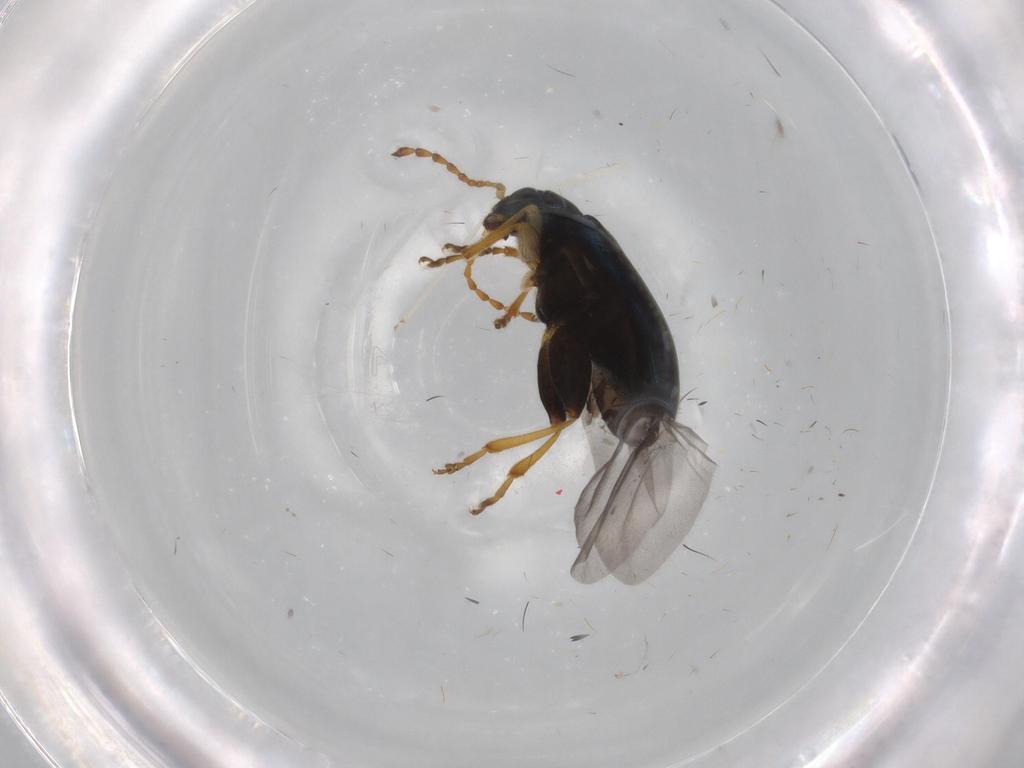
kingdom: Animalia
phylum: Arthropoda
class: Insecta
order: Coleoptera
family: Chrysomelidae
